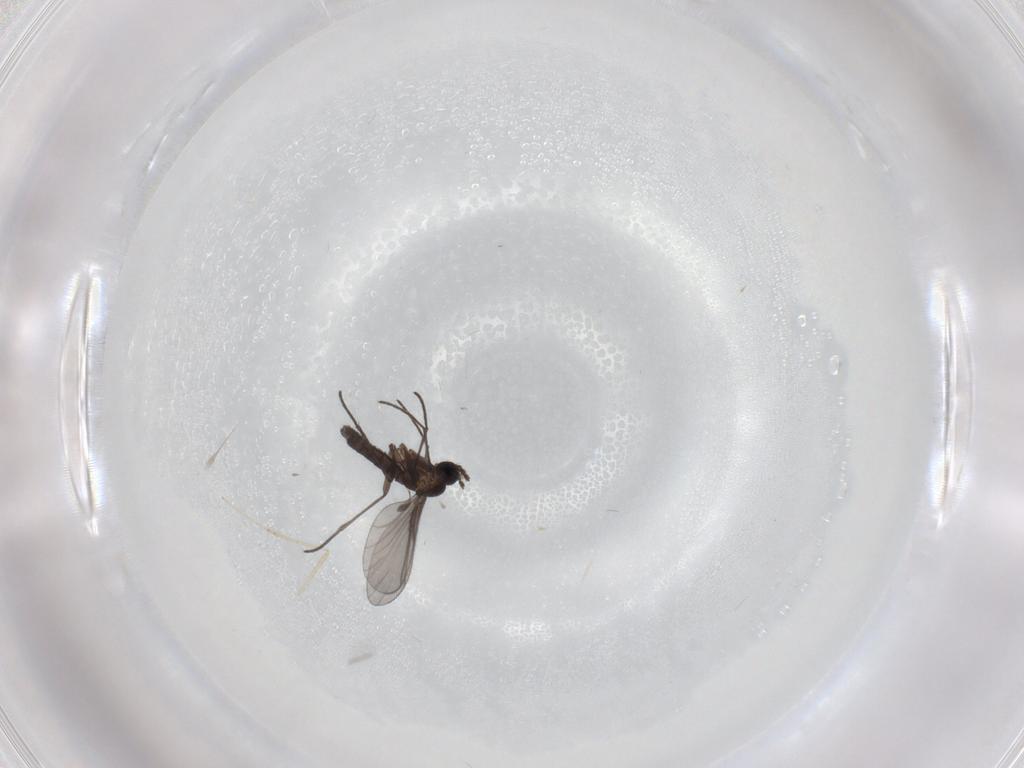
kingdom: Animalia
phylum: Arthropoda
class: Insecta
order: Diptera
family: Cecidomyiidae
